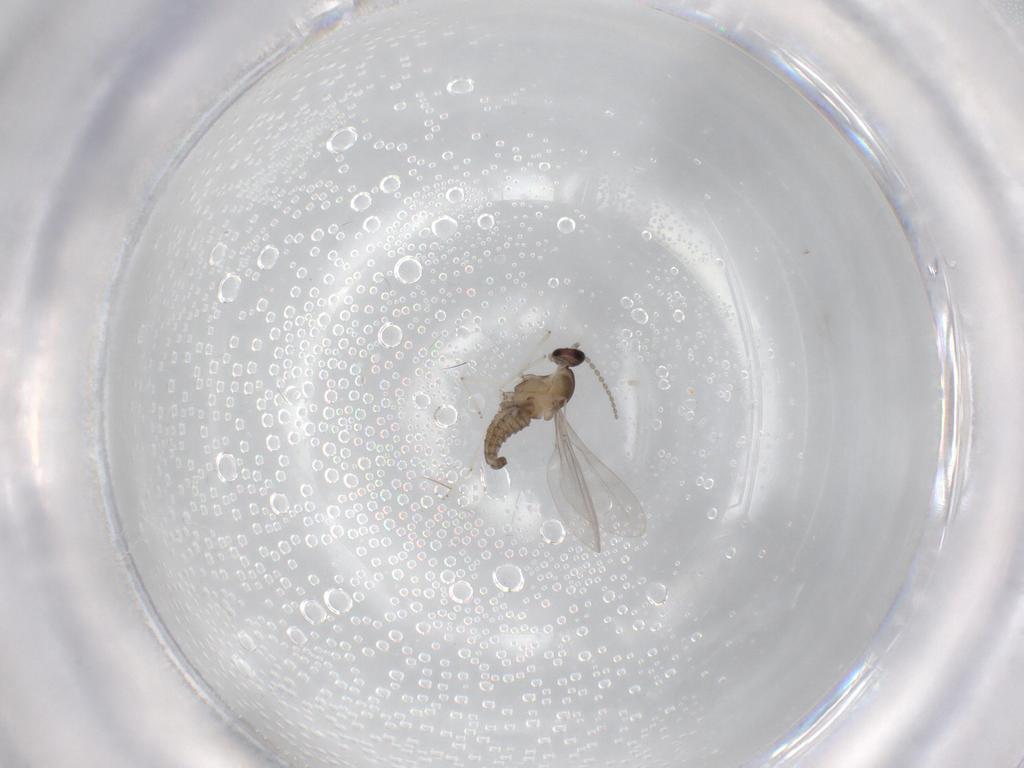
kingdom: Animalia
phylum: Arthropoda
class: Insecta
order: Diptera
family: Cecidomyiidae
